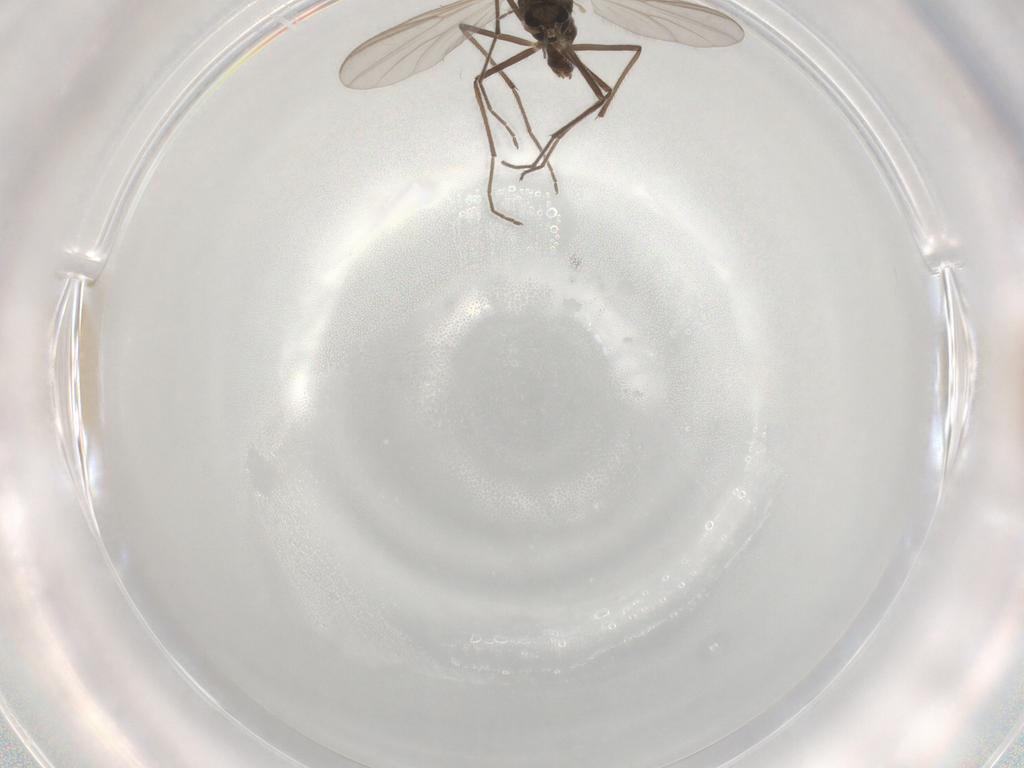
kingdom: Animalia
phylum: Arthropoda
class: Insecta
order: Diptera
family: Chironomidae
